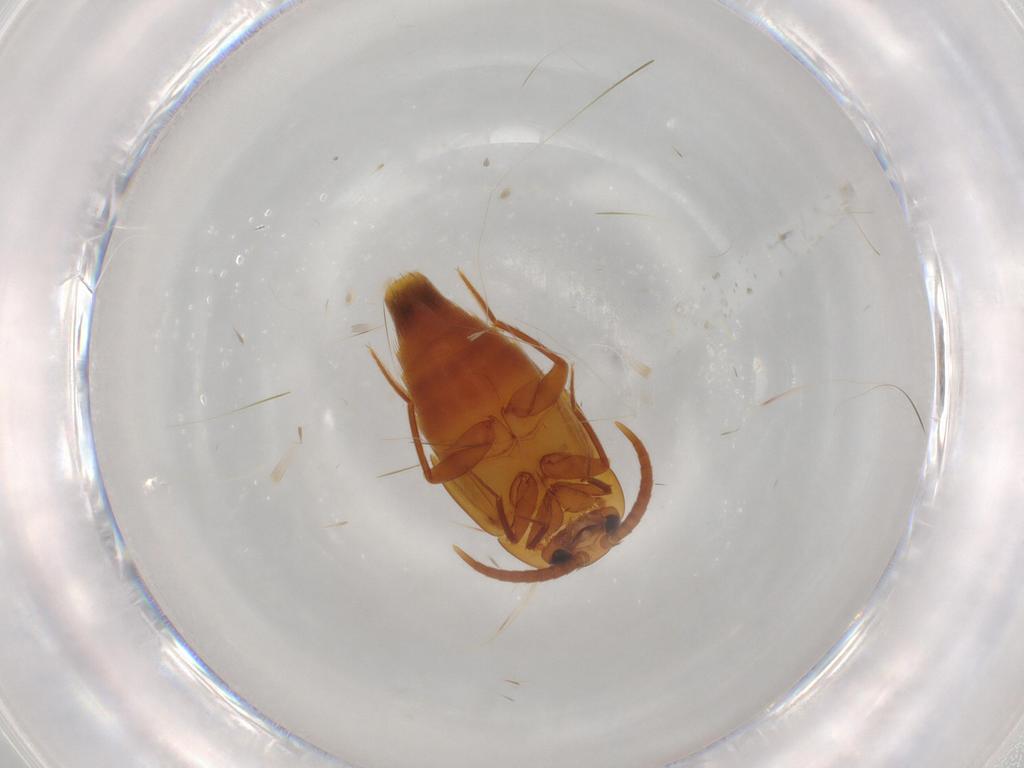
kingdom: Animalia
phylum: Arthropoda
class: Insecta
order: Coleoptera
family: Staphylinidae
